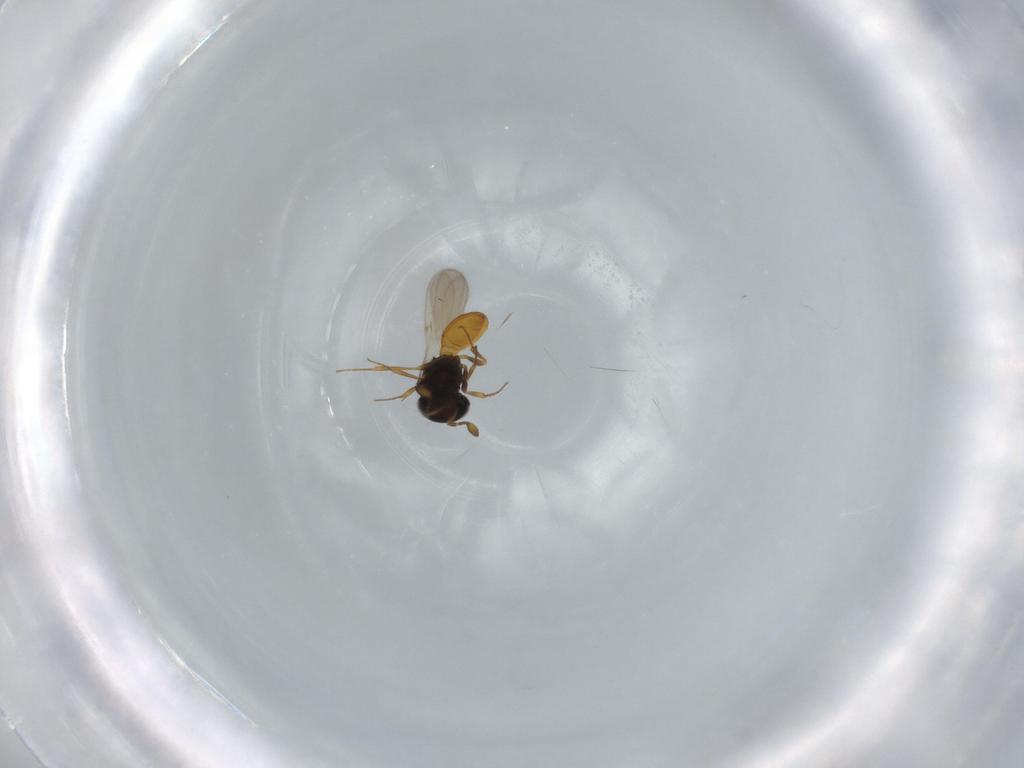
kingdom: Animalia
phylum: Arthropoda
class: Insecta
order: Hymenoptera
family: Scelionidae
